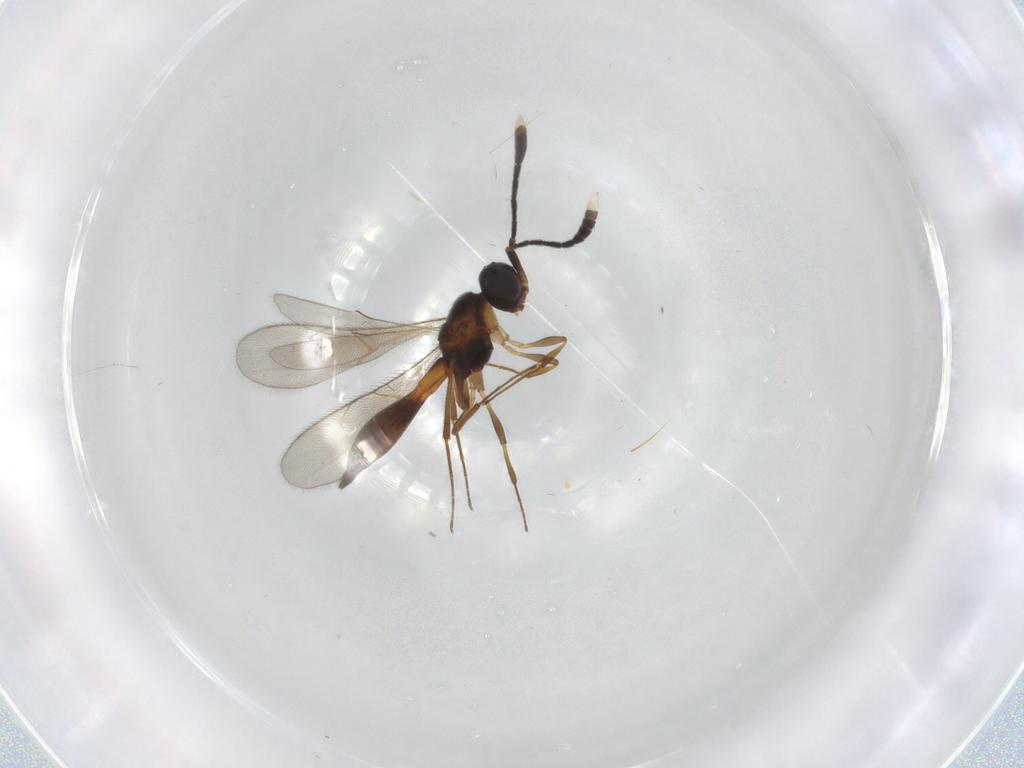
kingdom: Animalia
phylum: Arthropoda
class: Insecta
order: Hymenoptera
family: Scelionidae
